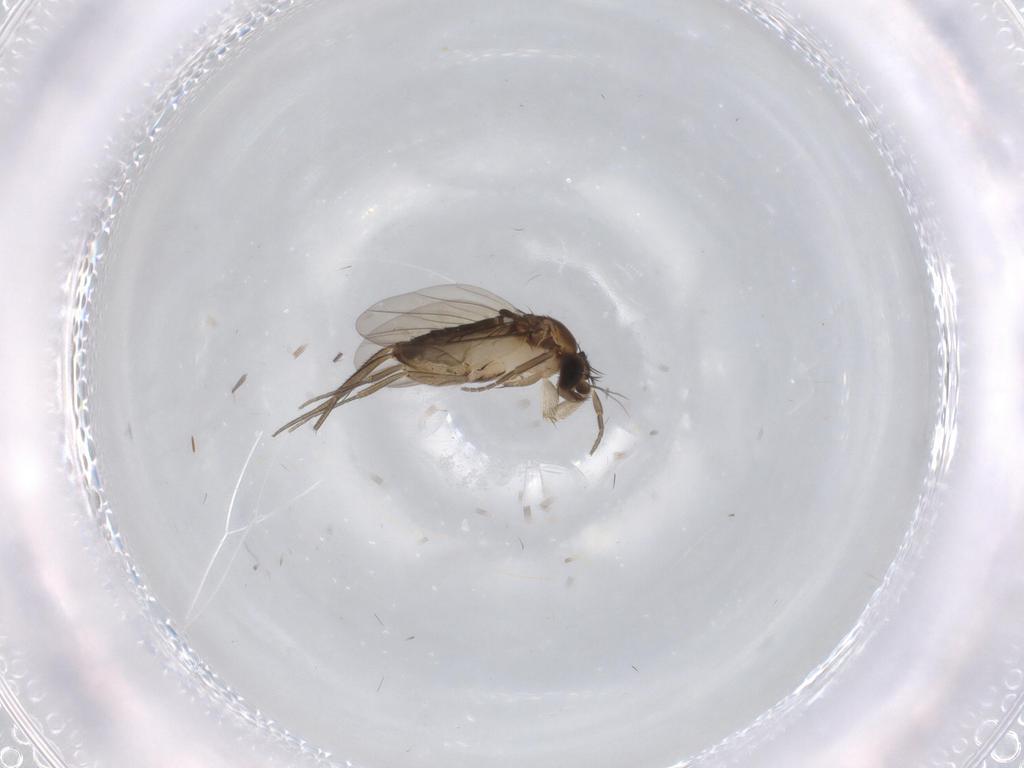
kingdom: Animalia
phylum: Arthropoda
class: Insecta
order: Diptera
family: Phoridae
